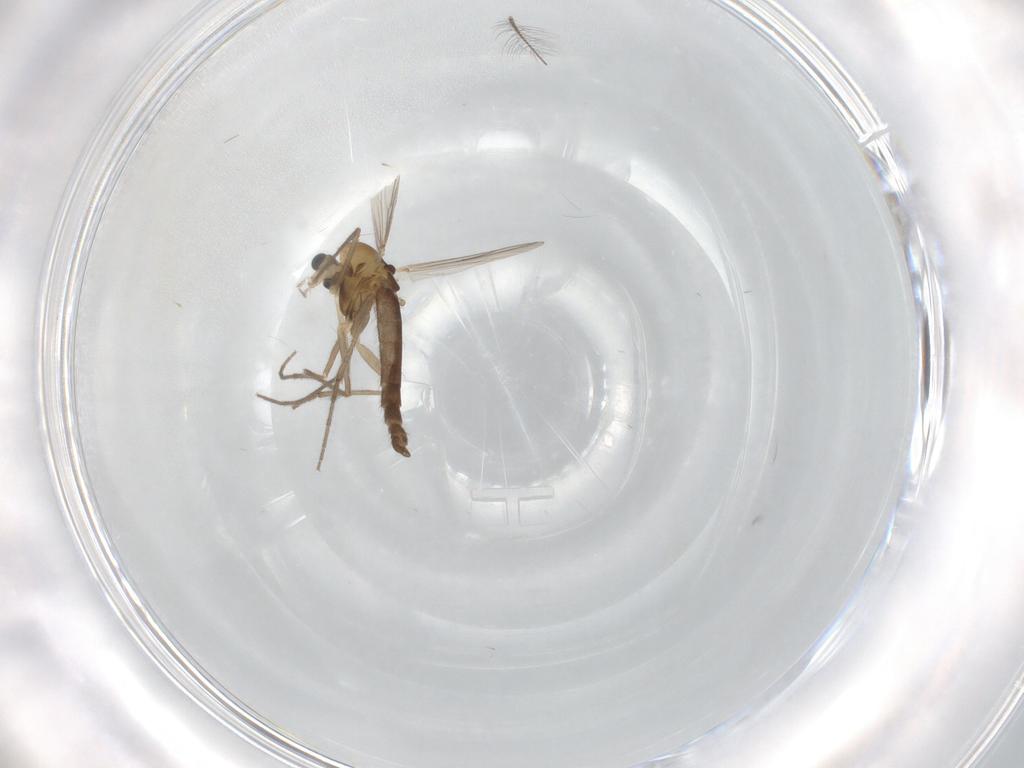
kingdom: Animalia
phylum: Arthropoda
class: Insecta
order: Diptera
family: Chironomidae
